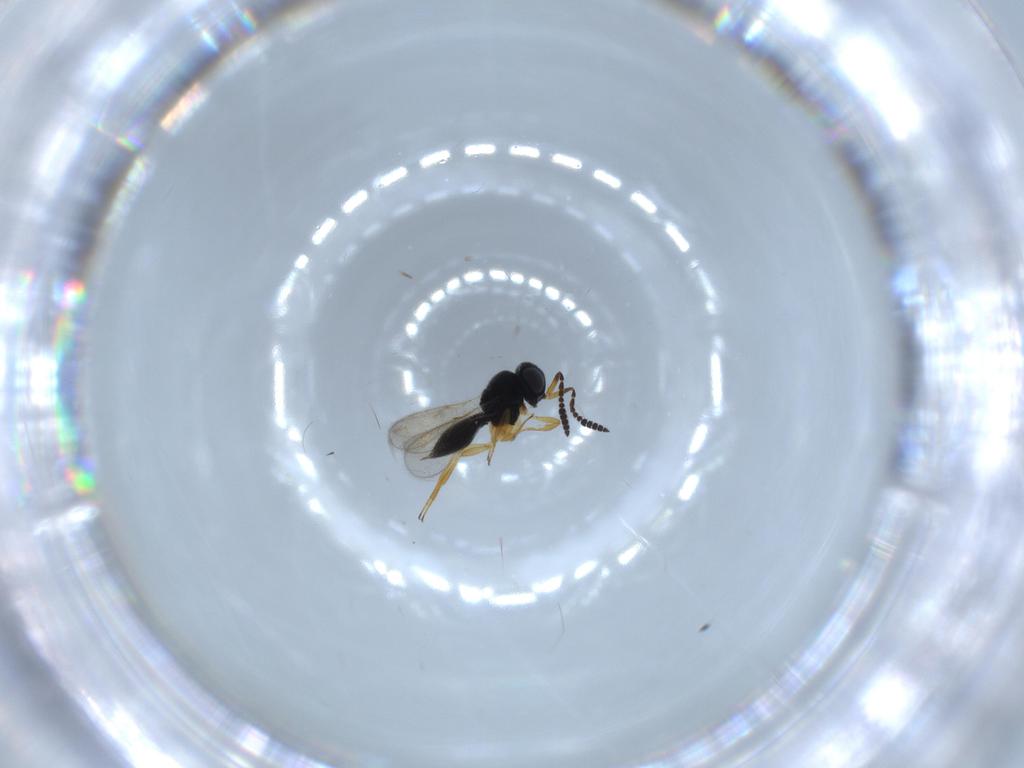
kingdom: Animalia
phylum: Arthropoda
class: Insecta
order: Hymenoptera
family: Scelionidae
